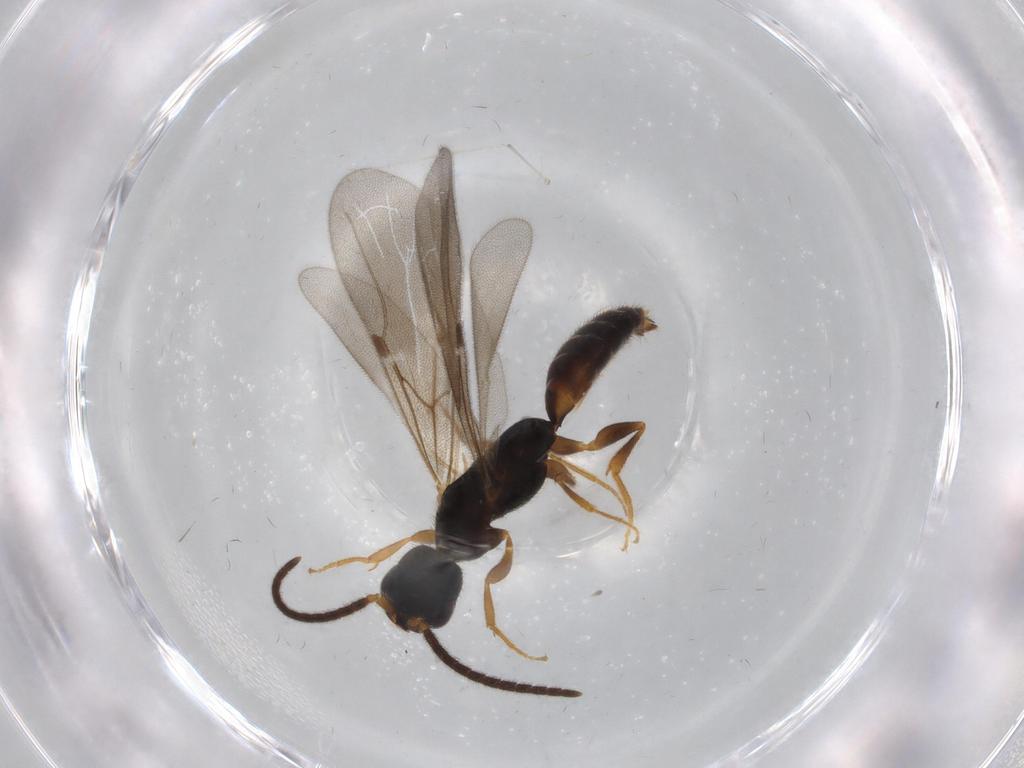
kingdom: Animalia
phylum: Arthropoda
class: Insecta
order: Hymenoptera
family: Bethylidae
